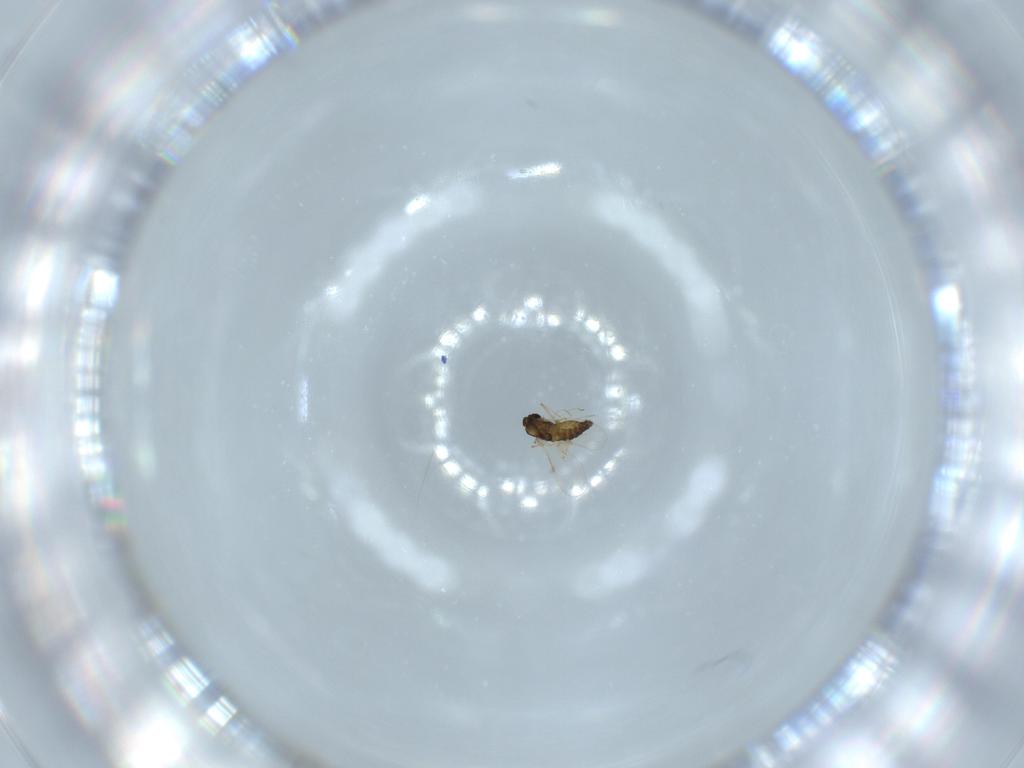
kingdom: Animalia
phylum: Arthropoda
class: Insecta
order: Diptera
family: Chironomidae
